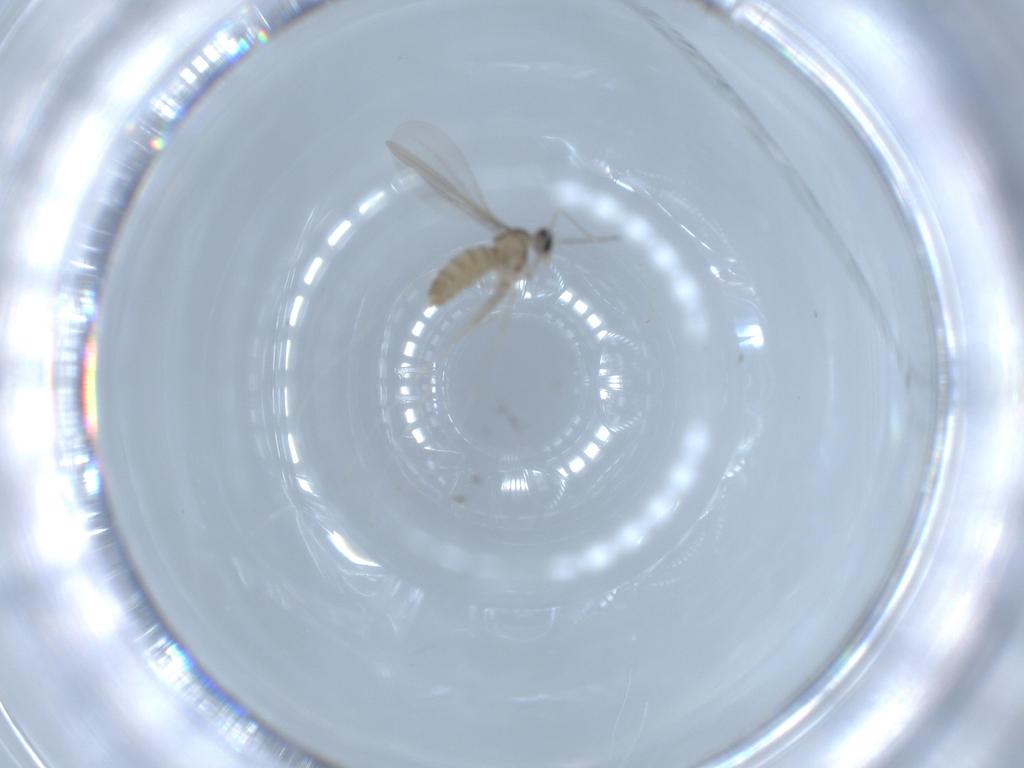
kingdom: Animalia
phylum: Arthropoda
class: Insecta
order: Diptera
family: Cecidomyiidae
